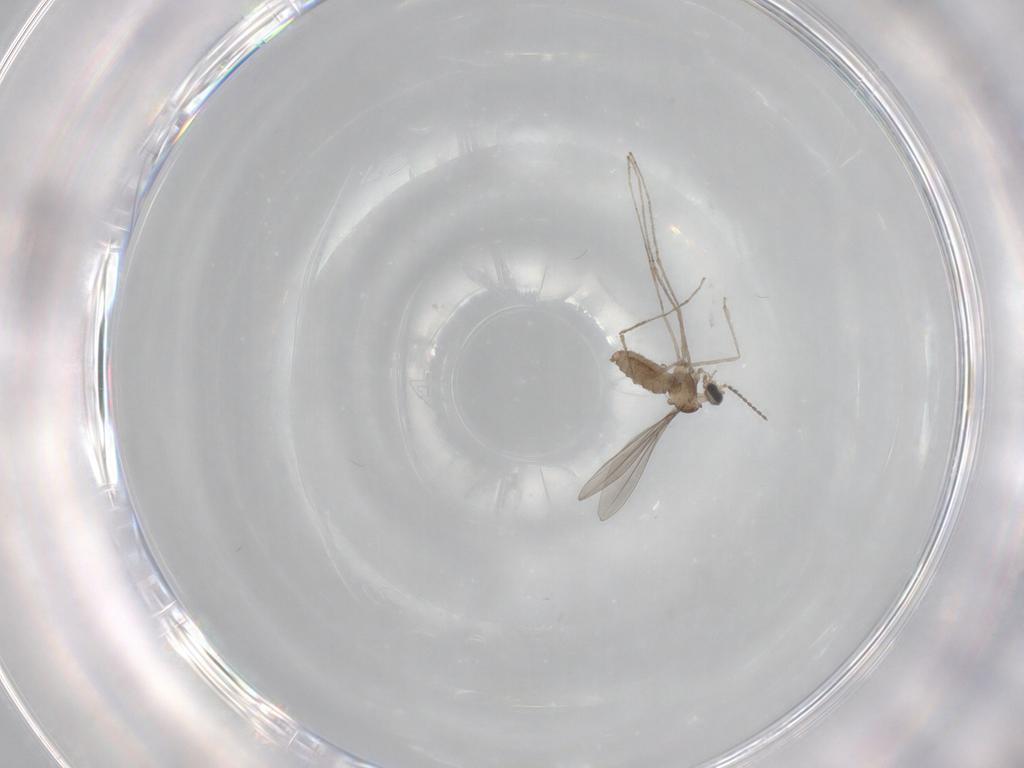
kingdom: Animalia
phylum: Arthropoda
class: Insecta
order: Diptera
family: Cecidomyiidae
